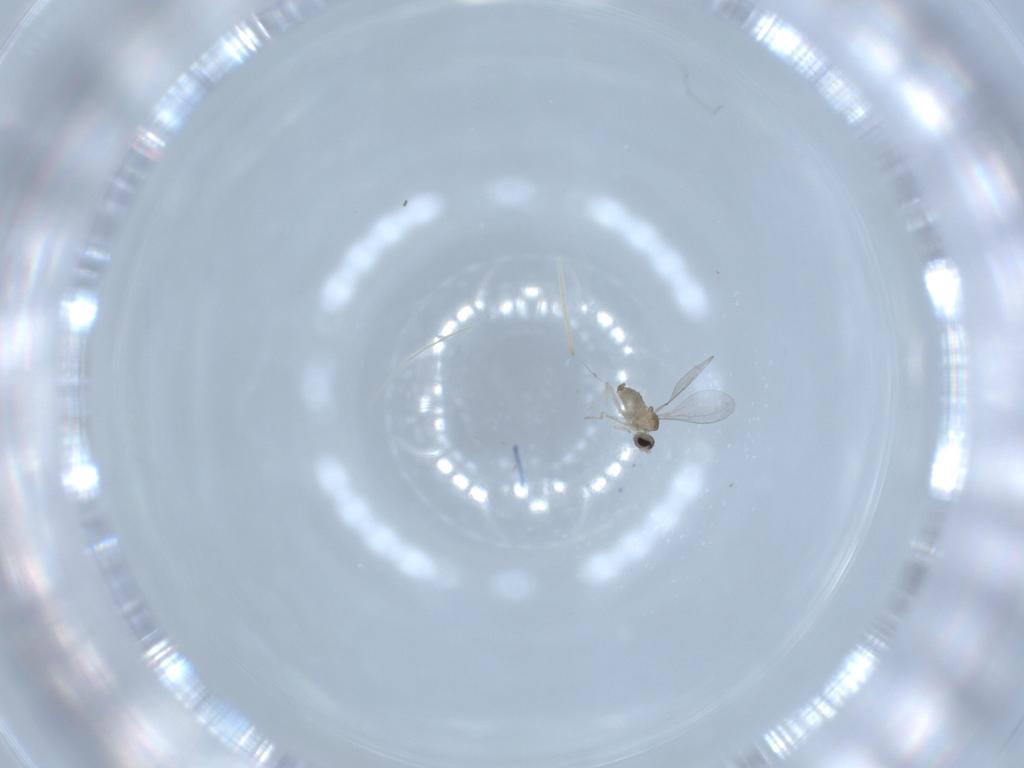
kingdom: Animalia
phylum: Arthropoda
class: Insecta
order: Diptera
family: Cecidomyiidae
